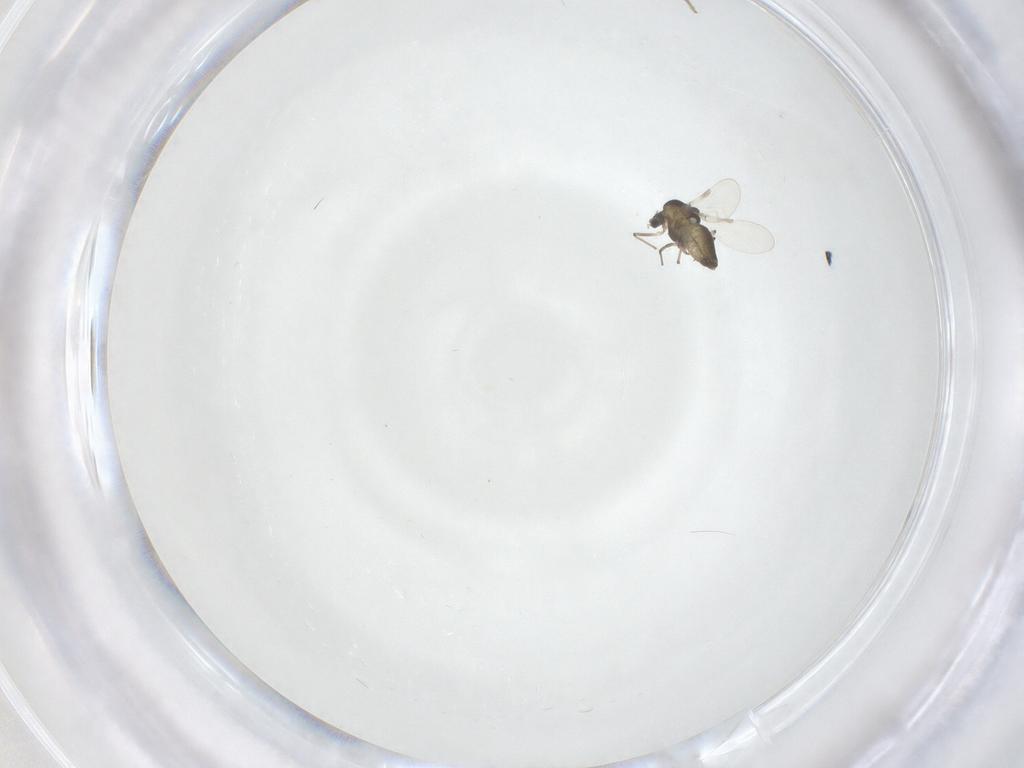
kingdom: Animalia
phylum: Arthropoda
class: Insecta
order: Diptera
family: Chironomidae
